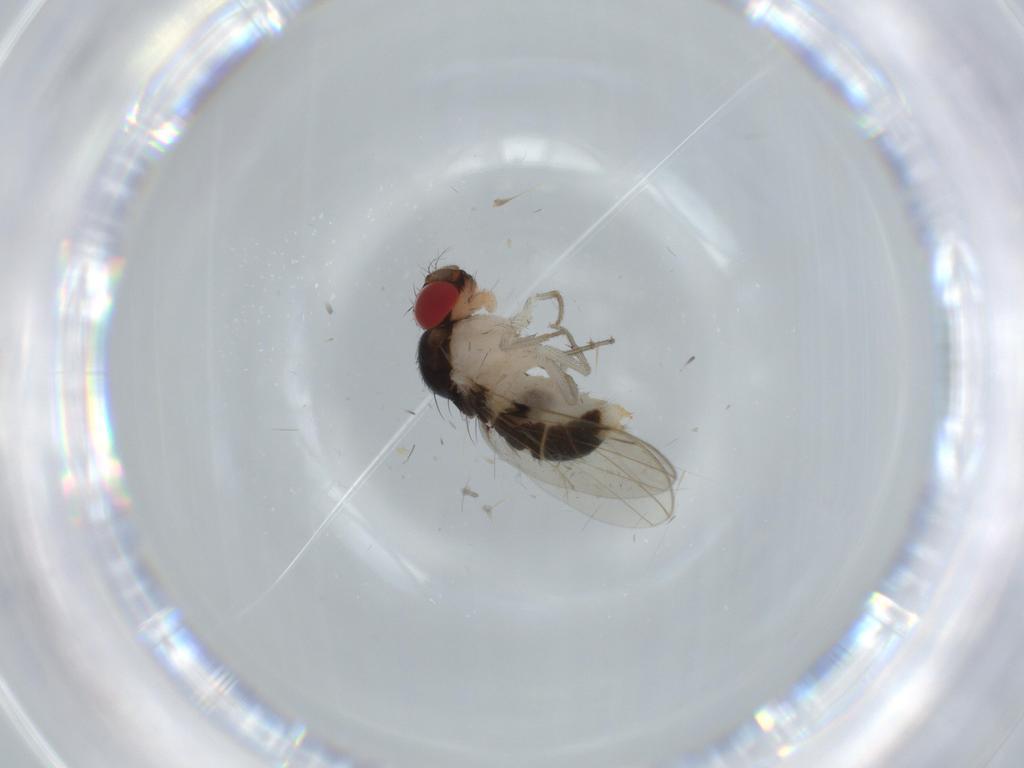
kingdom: Animalia
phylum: Arthropoda
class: Insecta
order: Diptera
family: Drosophilidae
